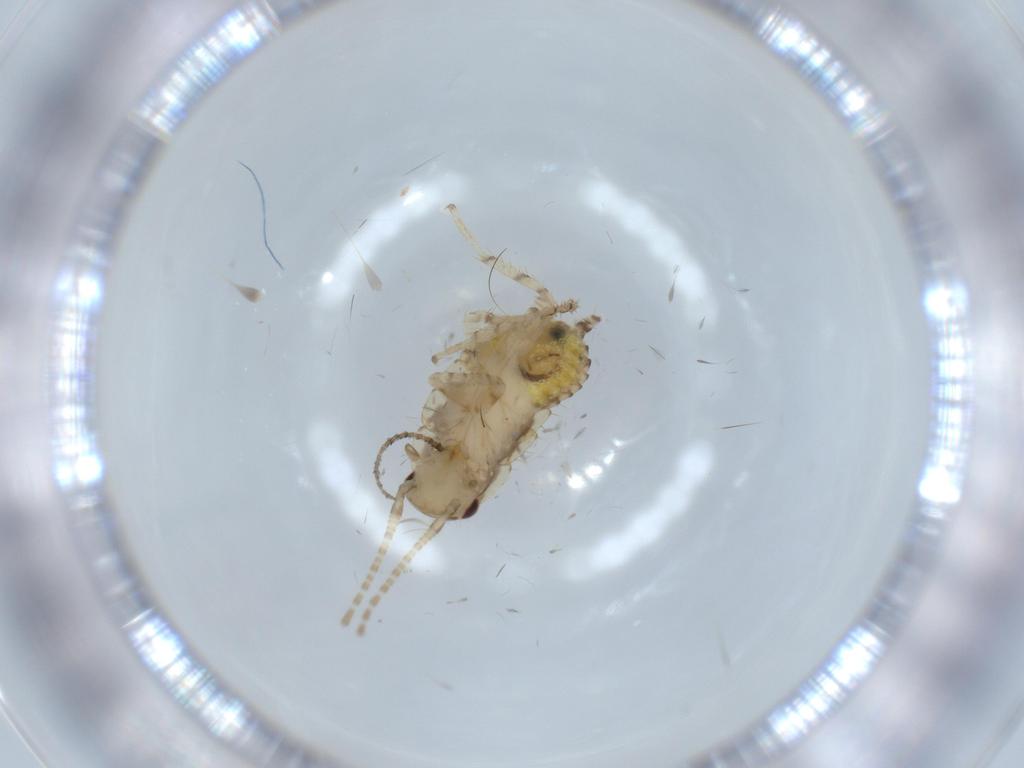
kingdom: Animalia
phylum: Arthropoda
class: Insecta
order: Blattodea
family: Ectobiidae
